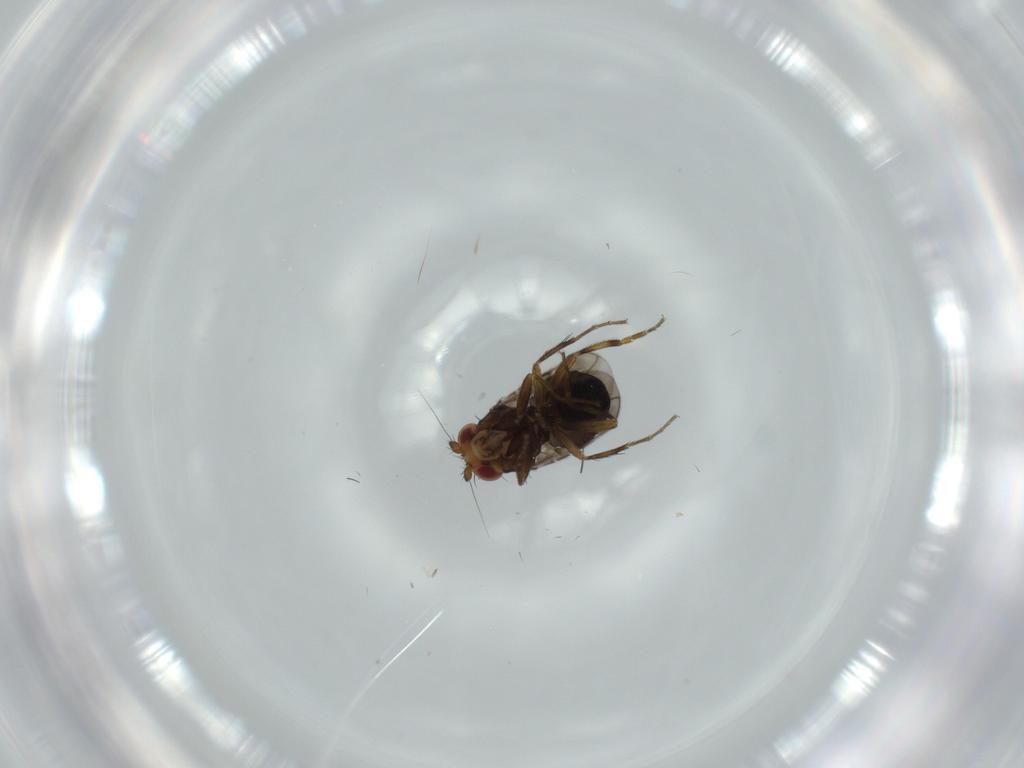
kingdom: Animalia
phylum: Arthropoda
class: Insecta
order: Diptera
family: Sphaeroceridae
